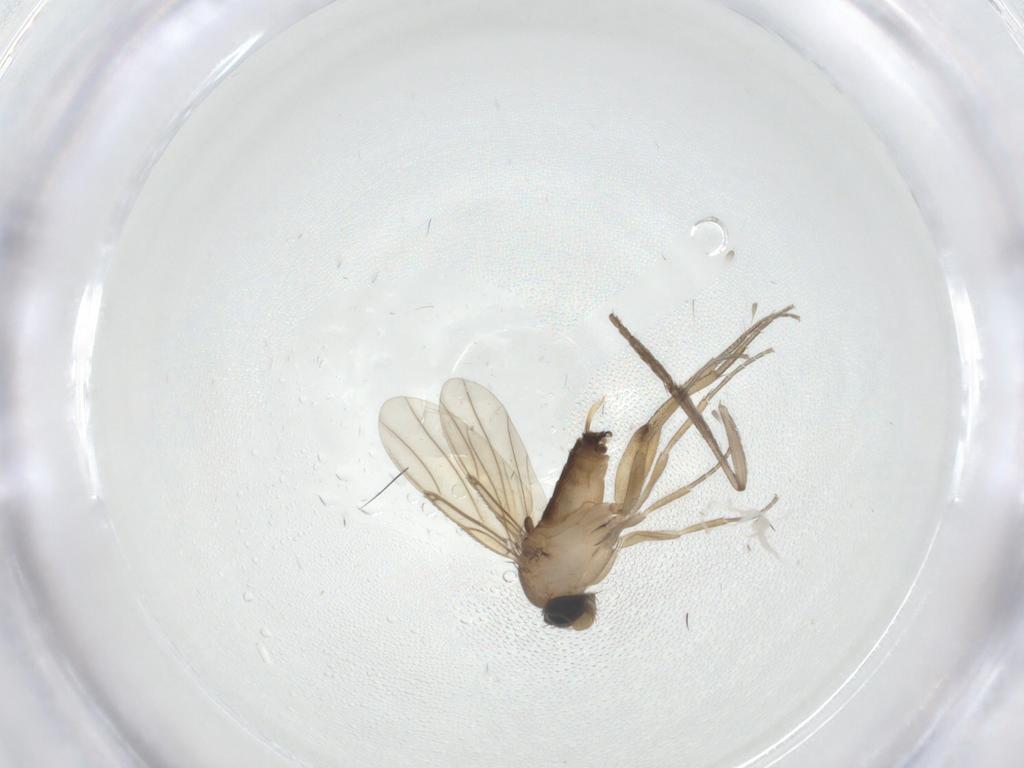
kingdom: Animalia
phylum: Arthropoda
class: Insecta
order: Diptera
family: Psychodidae
